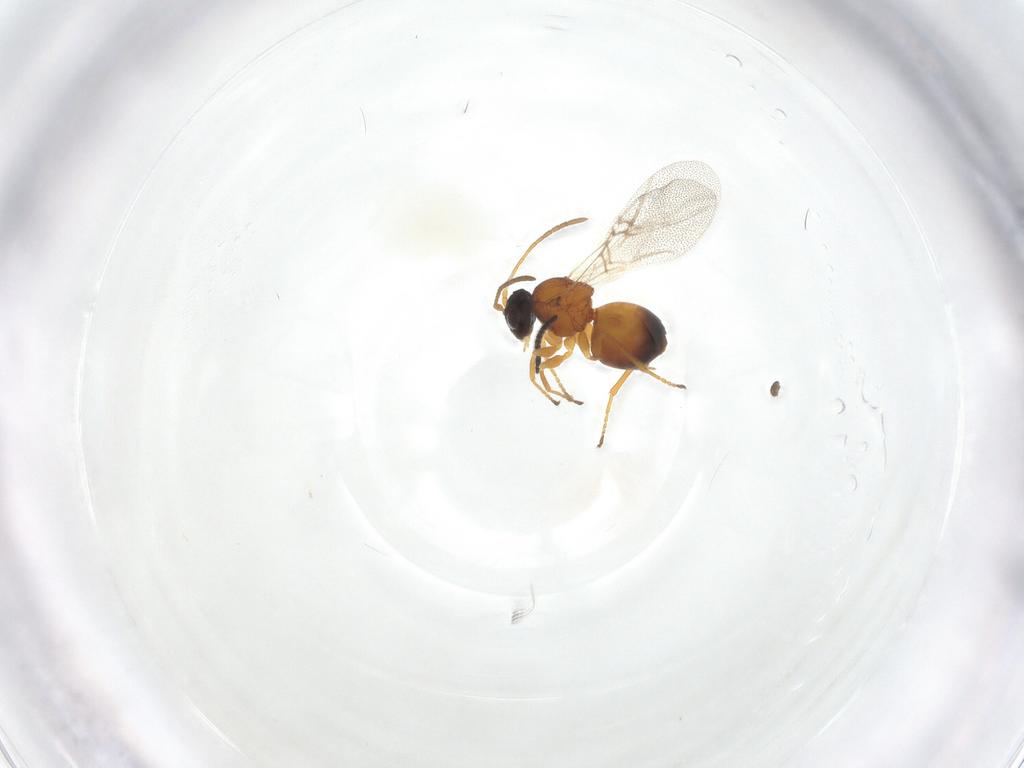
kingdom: Animalia
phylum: Arthropoda
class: Insecta
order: Hymenoptera
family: Cynipidae
